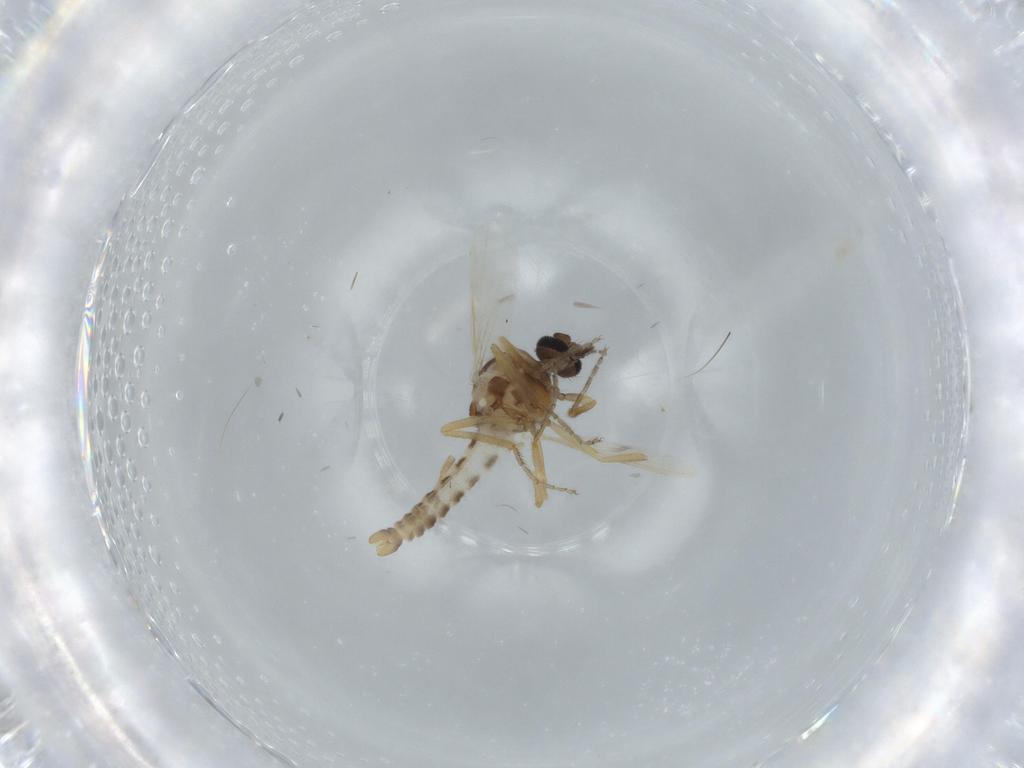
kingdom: Animalia
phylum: Arthropoda
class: Insecta
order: Diptera
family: Ceratopogonidae
